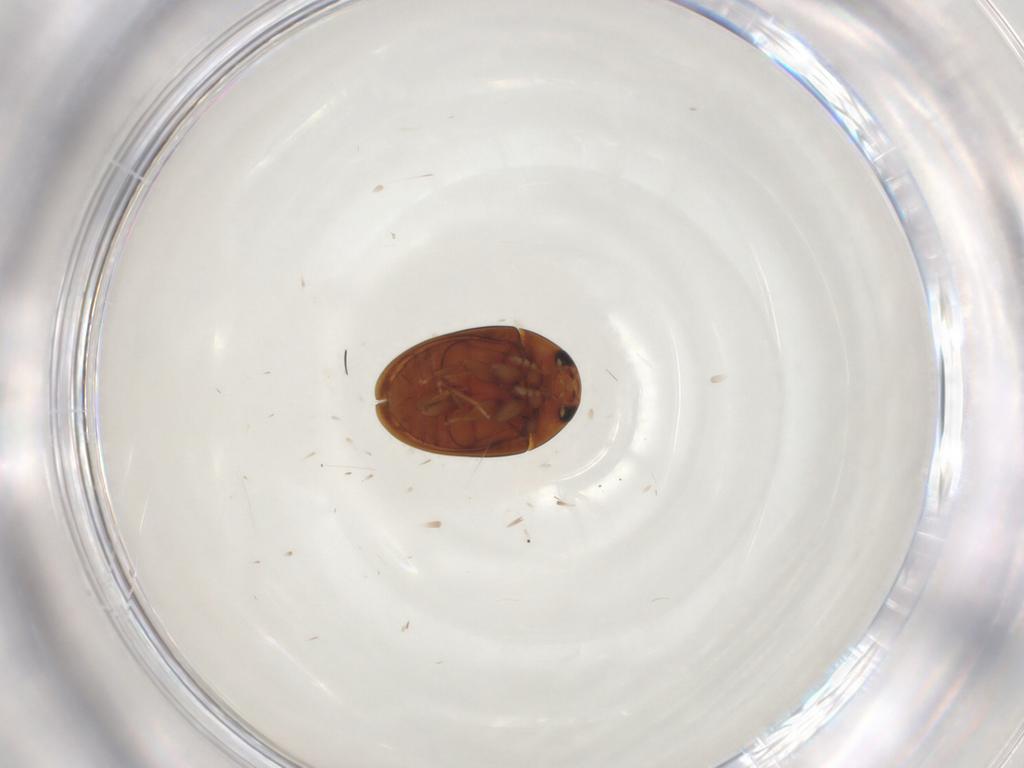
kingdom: Animalia
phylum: Arthropoda
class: Insecta
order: Coleoptera
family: Phalacridae
